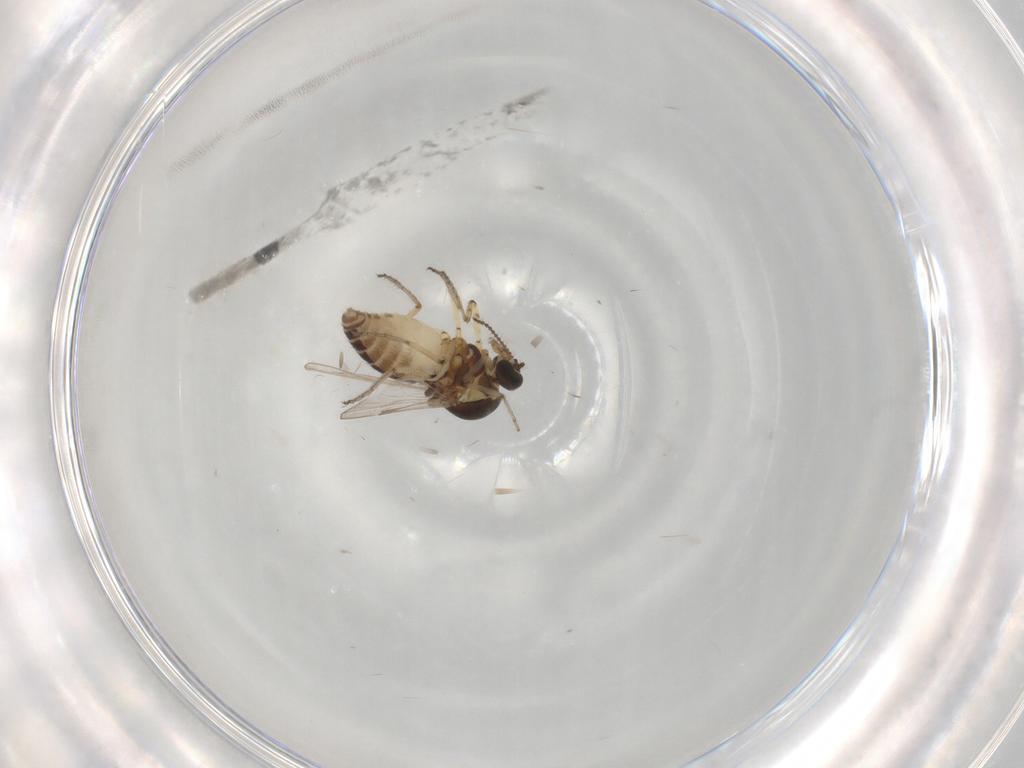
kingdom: Animalia
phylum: Arthropoda
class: Insecta
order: Diptera
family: Ceratopogonidae
